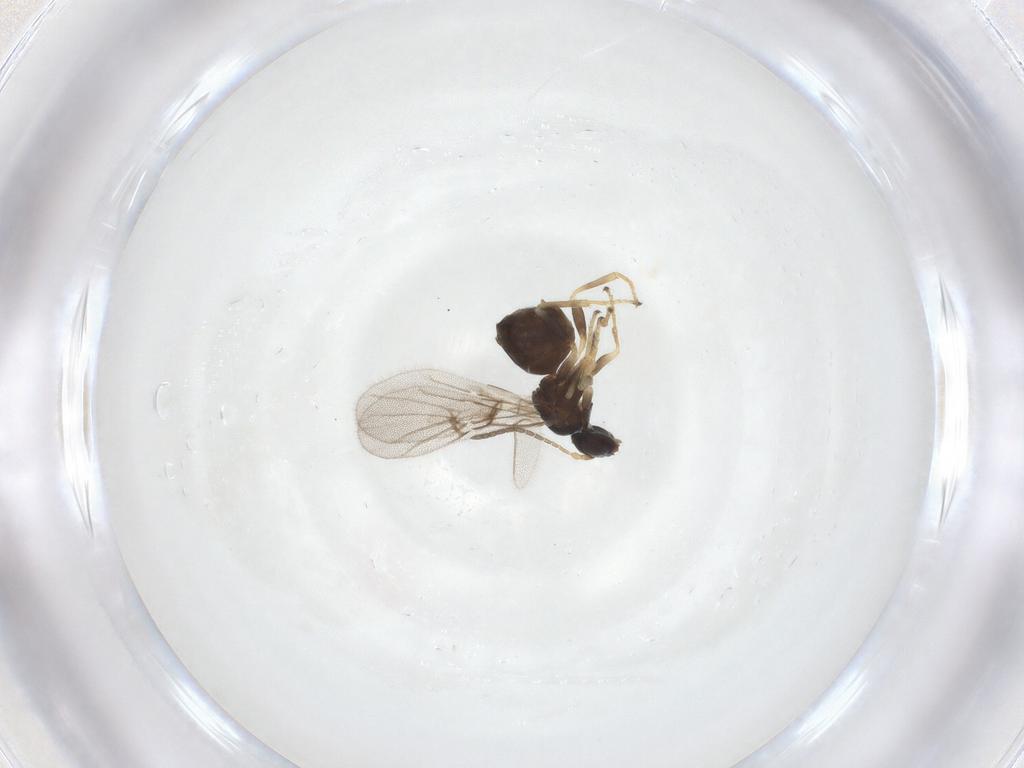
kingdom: Animalia
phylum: Arthropoda
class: Insecta
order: Hymenoptera
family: Cynipidae
